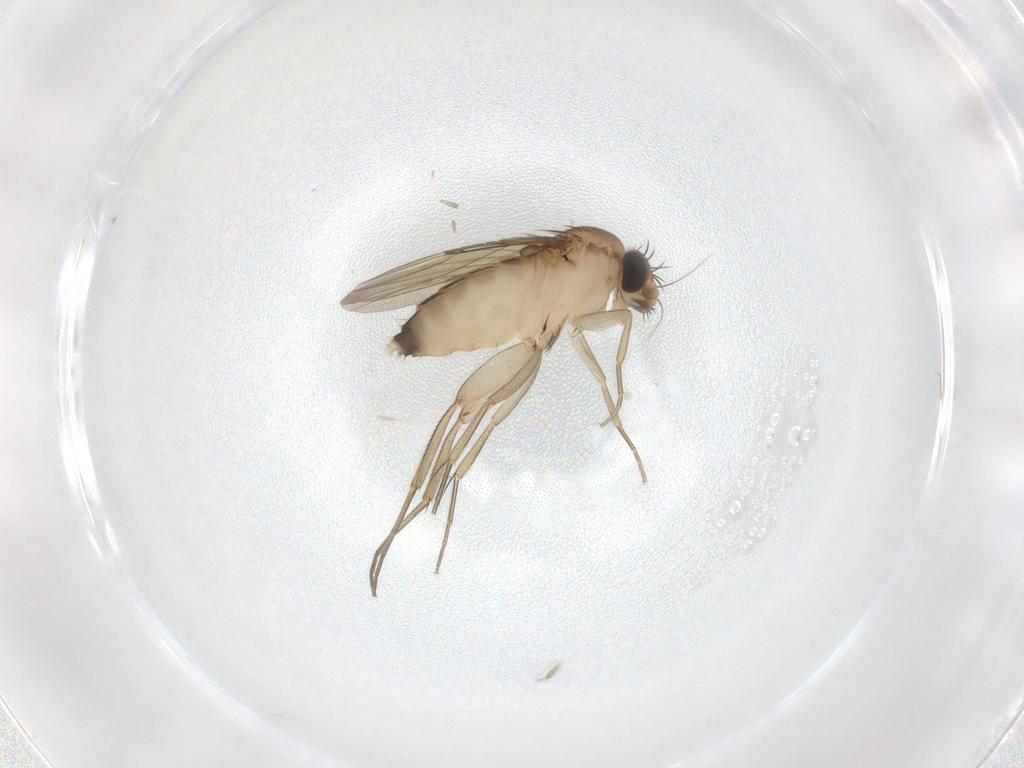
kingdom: Animalia
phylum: Arthropoda
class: Insecta
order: Diptera
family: Phoridae
